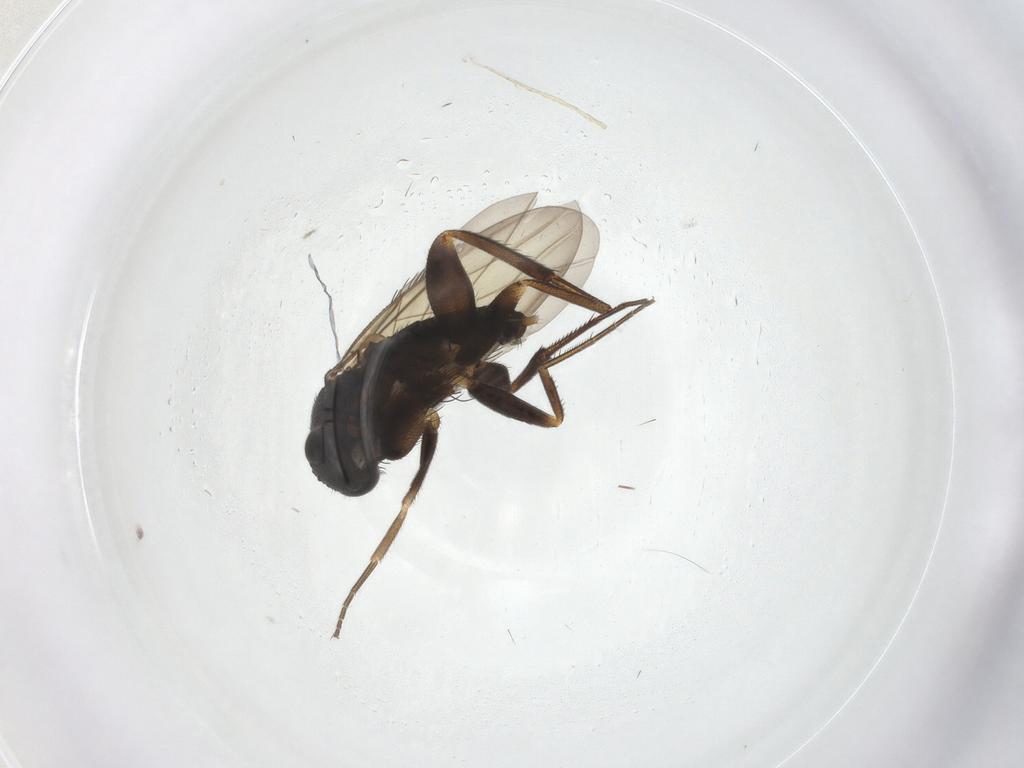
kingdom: Animalia
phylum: Arthropoda
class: Insecta
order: Diptera
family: Phoridae
